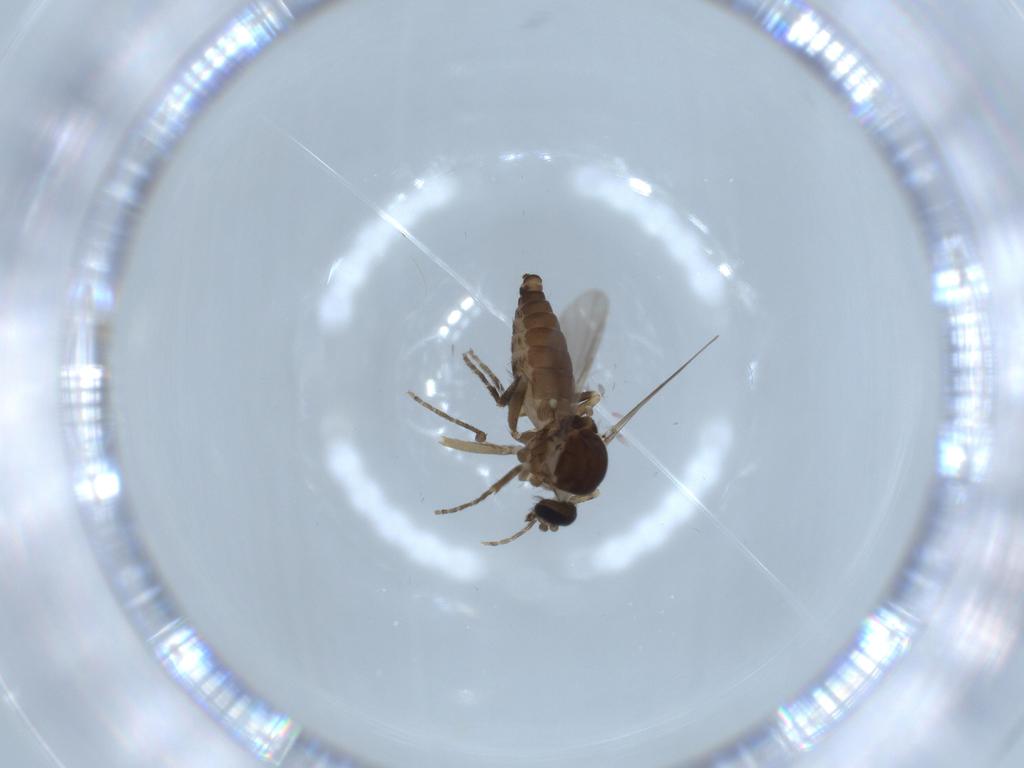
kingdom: Animalia
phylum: Arthropoda
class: Insecta
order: Diptera
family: Ceratopogonidae
